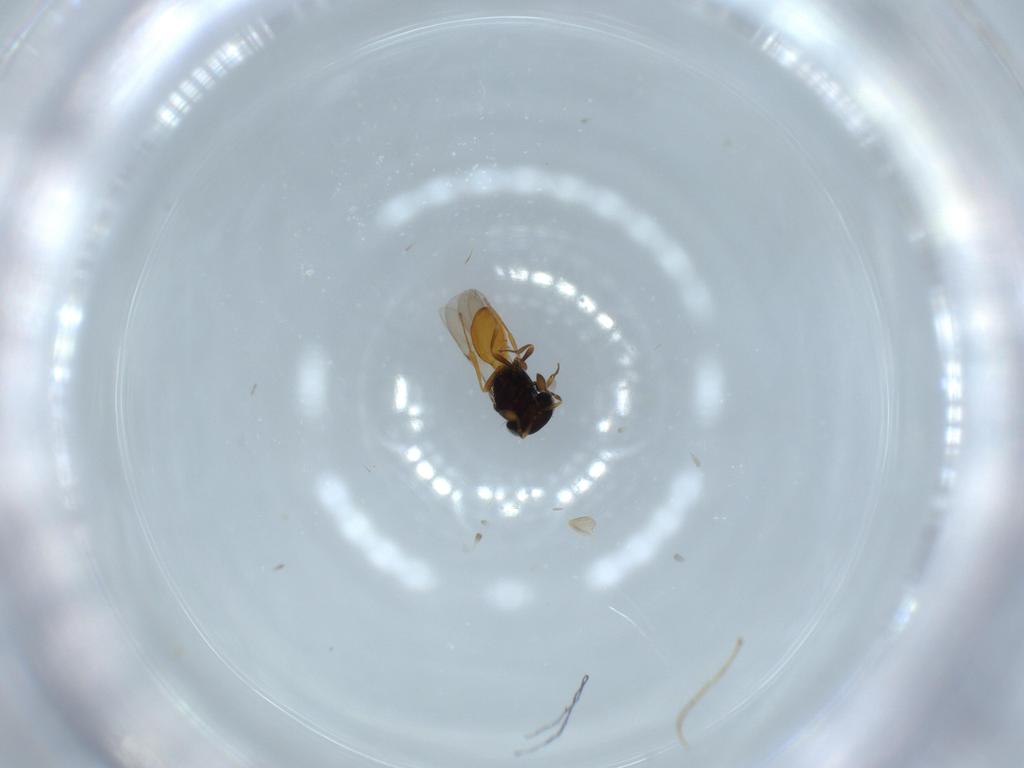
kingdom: Animalia
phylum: Arthropoda
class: Insecta
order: Hymenoptera
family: Scelionidae
